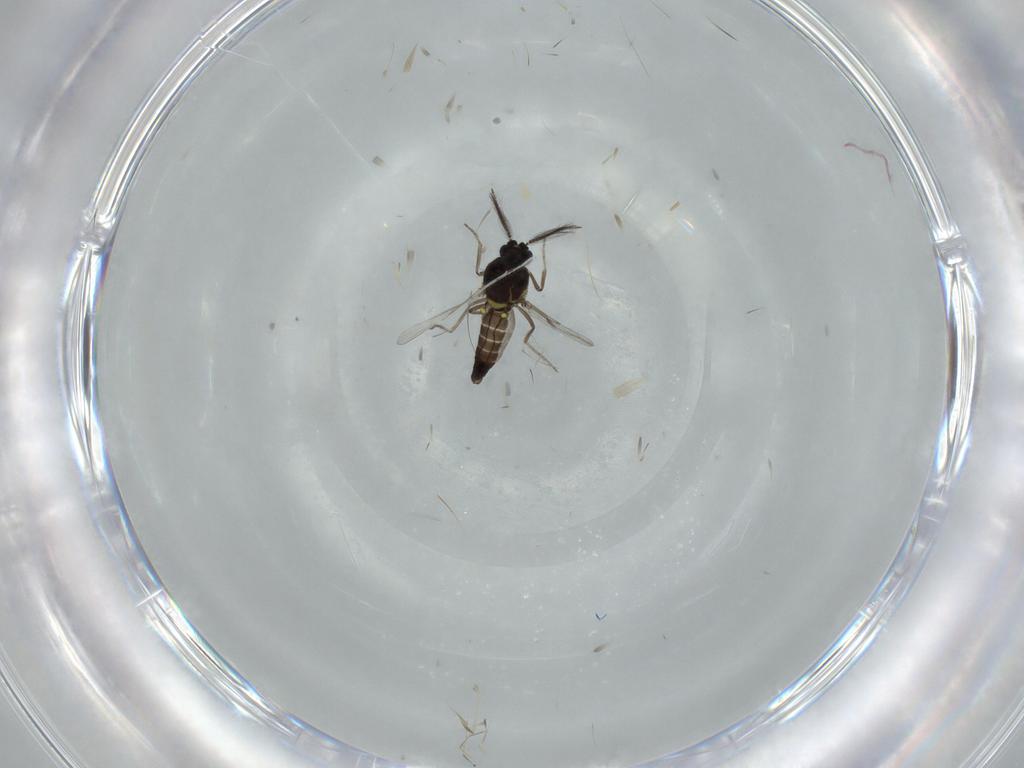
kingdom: Animalia
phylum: Arthropoda
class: Insecta
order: Diptera
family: Ceratopogonidae
